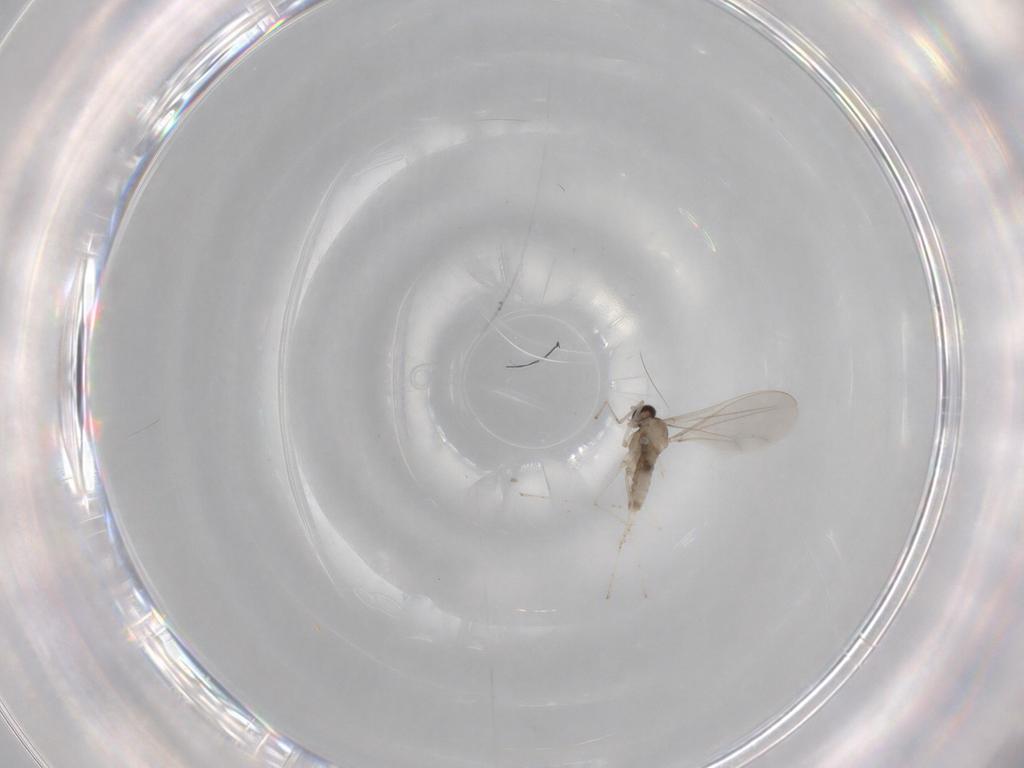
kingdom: Animalia
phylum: Arthropoda
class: Insecta
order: Diptera
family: Cecidomyiidae
